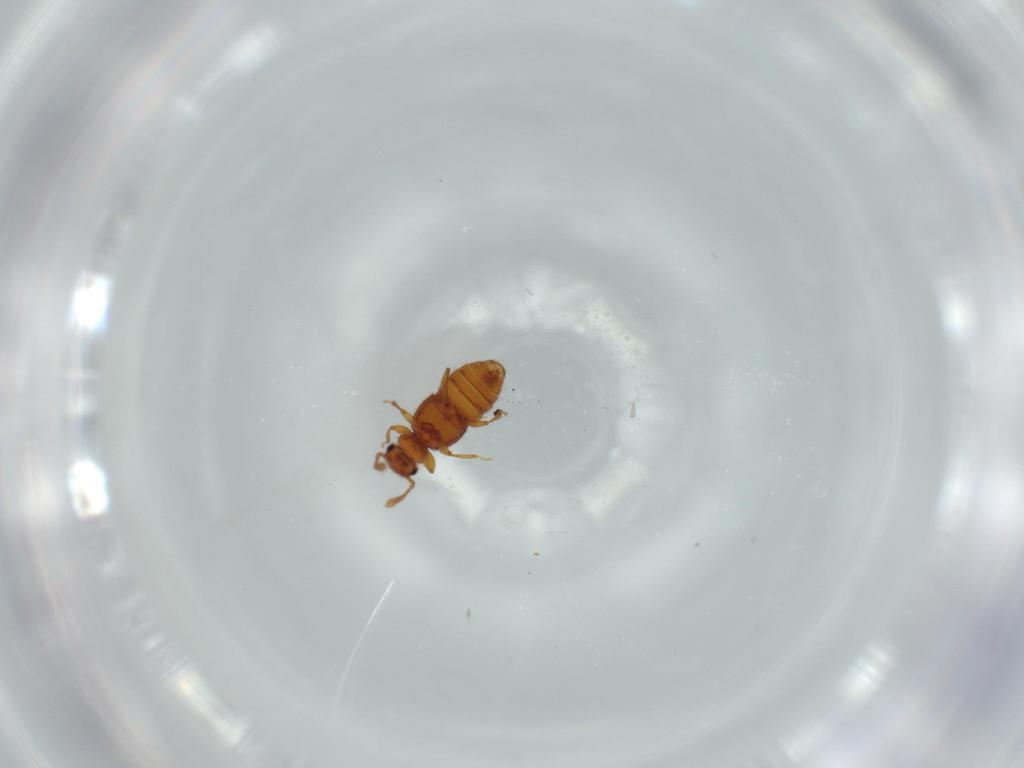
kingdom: Animalia
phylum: Arthropoda
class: Insecta
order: Coleoptera
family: Staphylinidae
